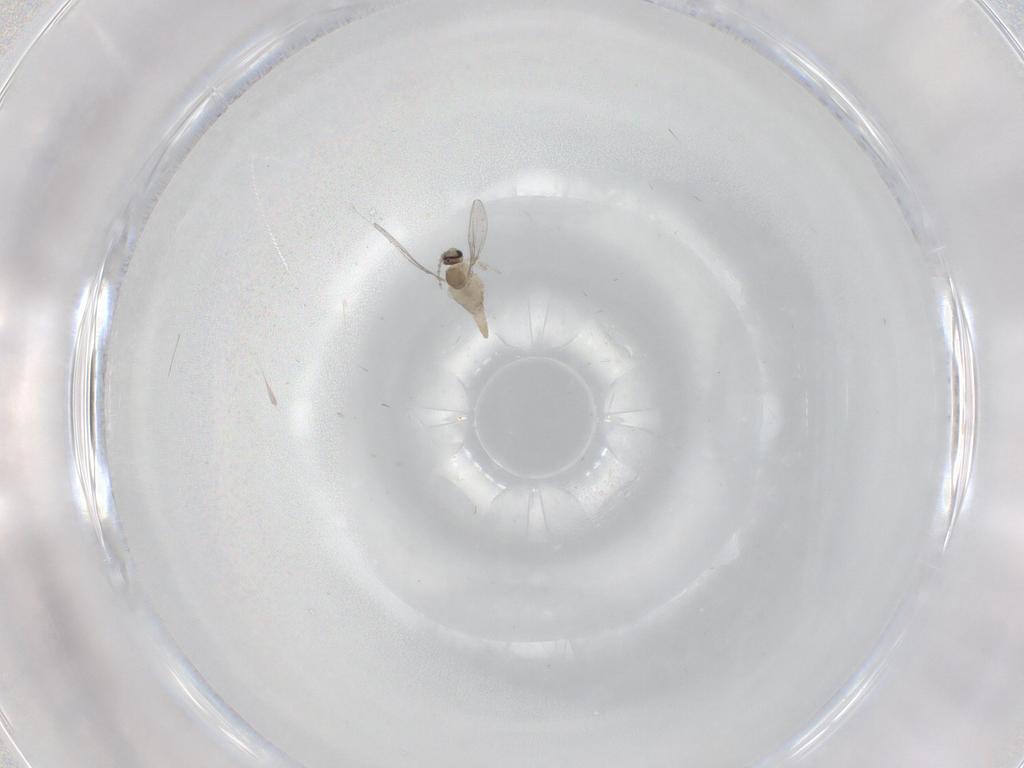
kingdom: Animalia
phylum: Arthropoda
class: Insecta
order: Diptera
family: Cecidomyiidae
